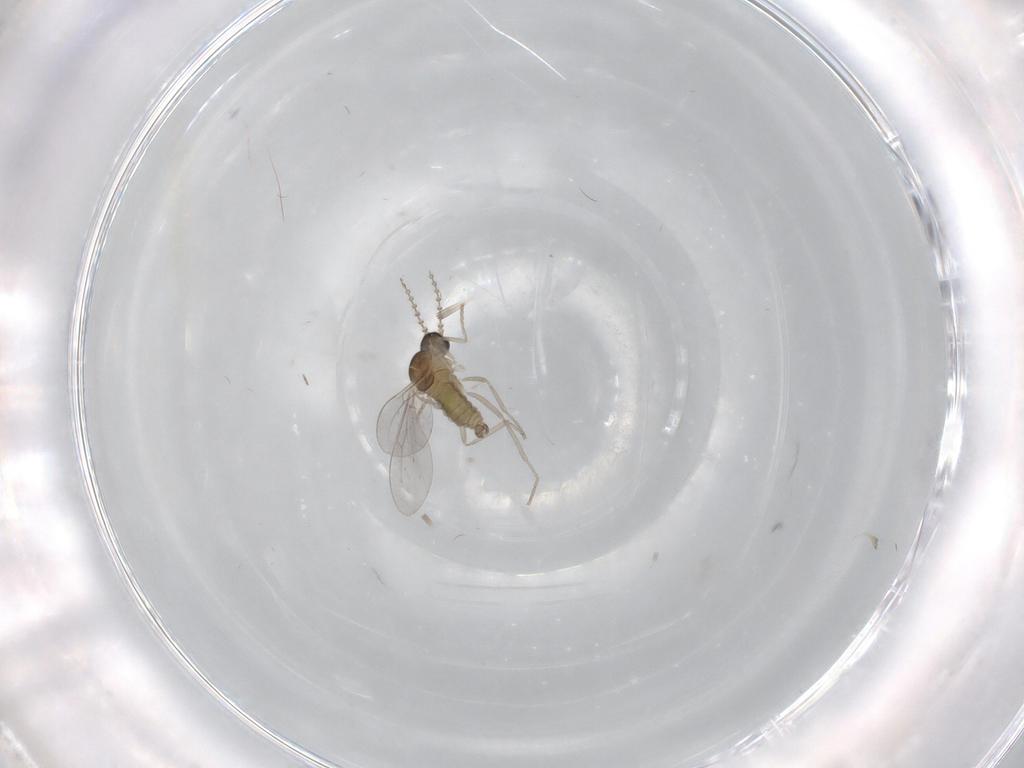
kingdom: Animalia
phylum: Arthropoda
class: Insecta
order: Diptera
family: Cecidomyiidae
